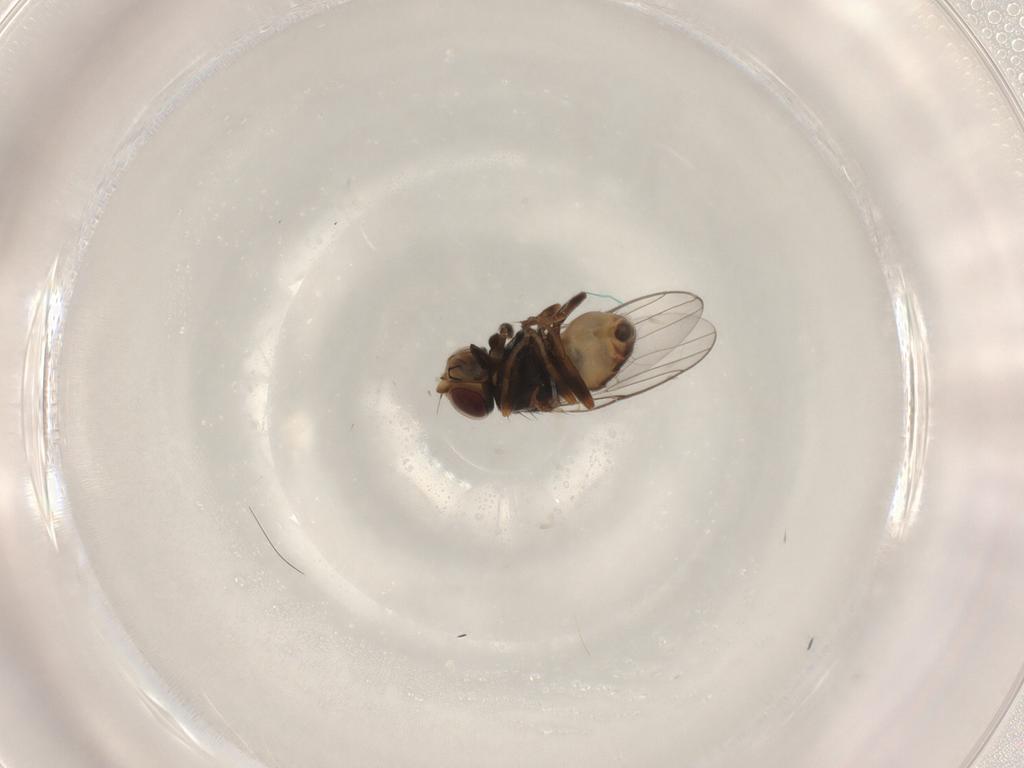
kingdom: Animalia
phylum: Arthropoda
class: Insecta
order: Diptera
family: Chloropidae
